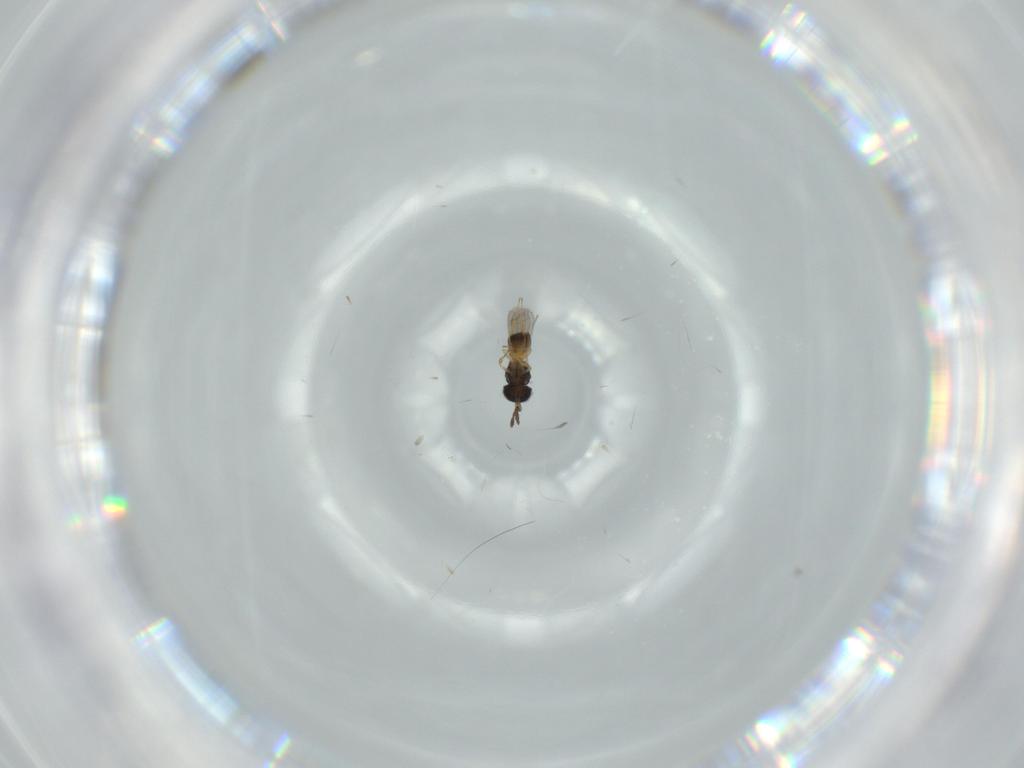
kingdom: Animalia
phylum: Arthropoda
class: Insecta
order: Hymenoptera
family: Scelionidae
